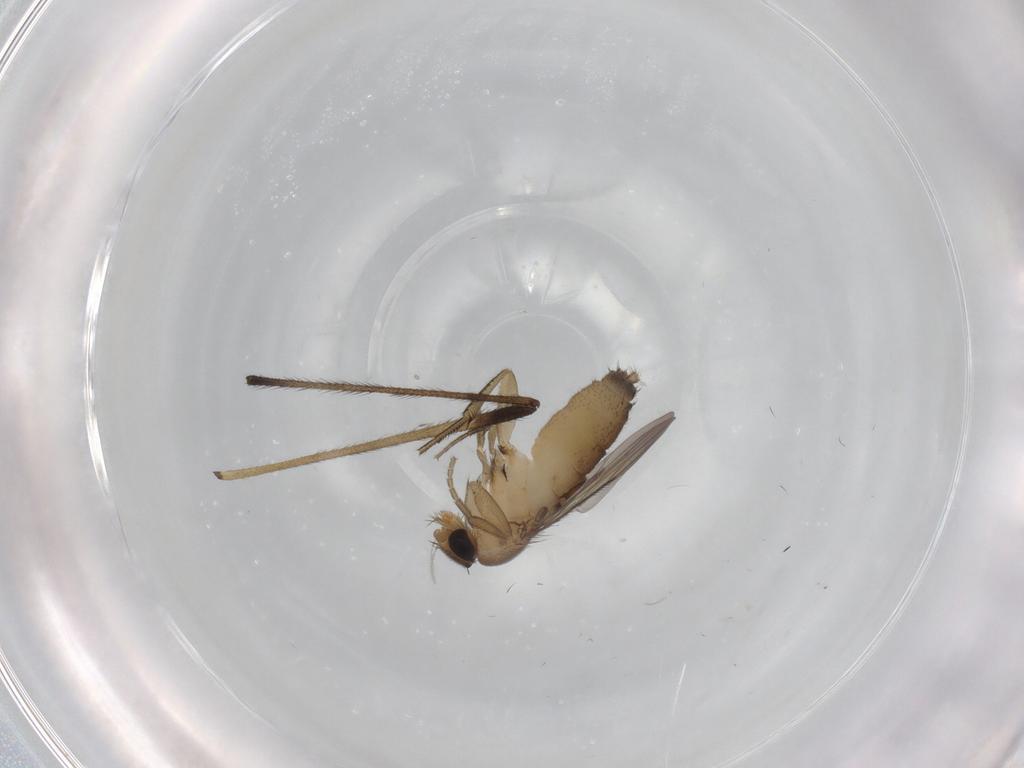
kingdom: Animalia
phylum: Arthropoda
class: Insecta
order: Diptera
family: Limoniidae
